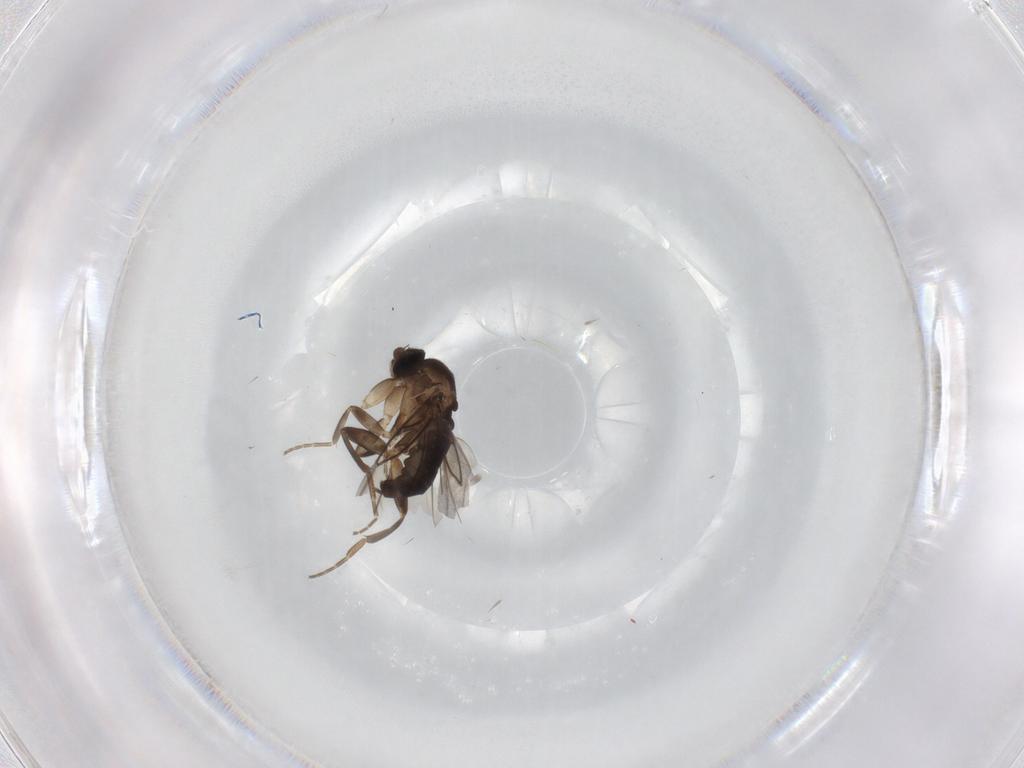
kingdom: Animalia
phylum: Arthropoda
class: Insecta
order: Diptera
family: Phoridae
